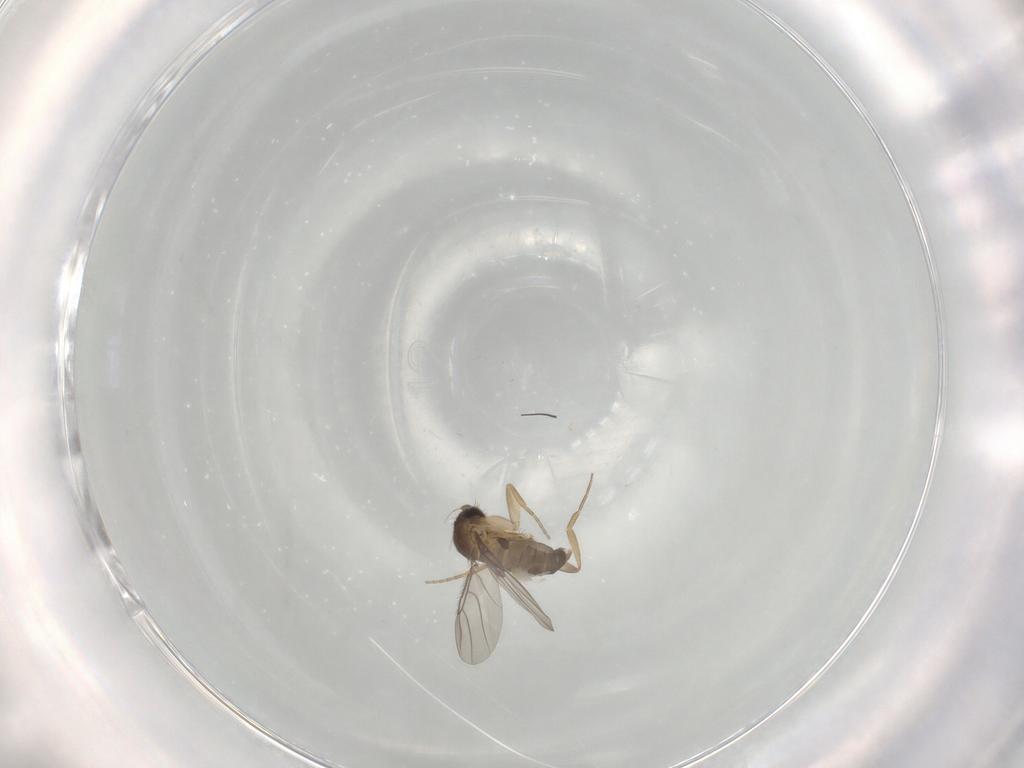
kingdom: Animalia
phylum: Arthropoda
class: Insecta
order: Diptera
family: Phoridae
